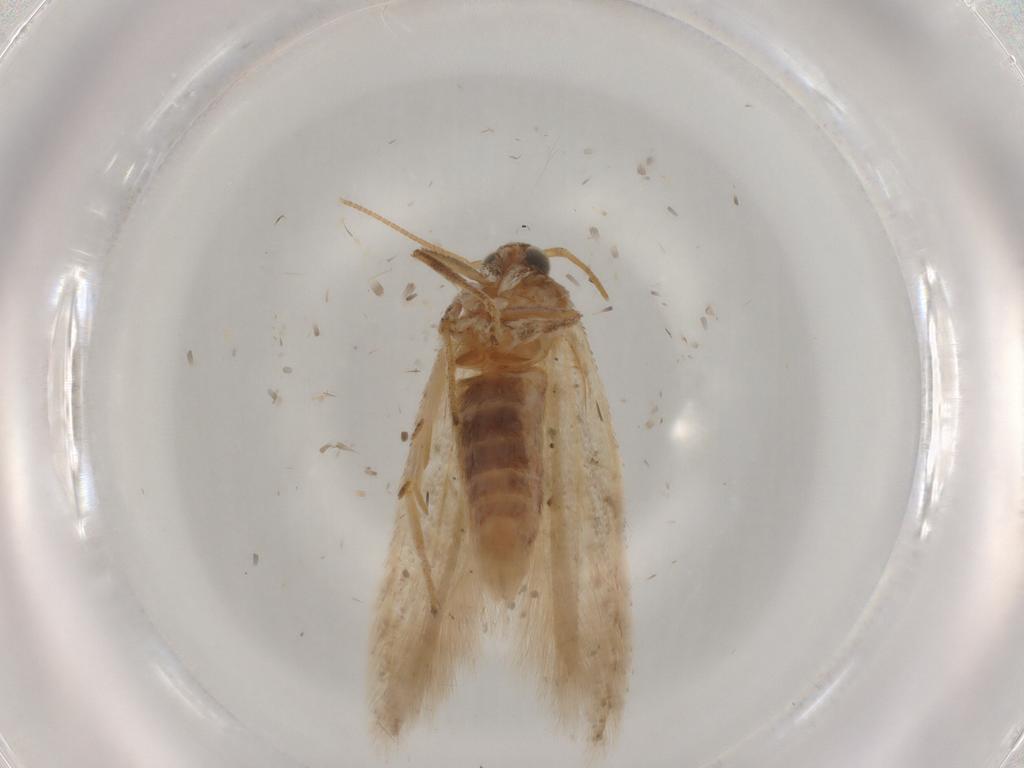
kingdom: Animalia
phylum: Arthropoda
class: Insecta
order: Lepidoptera
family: Gelechiidae
